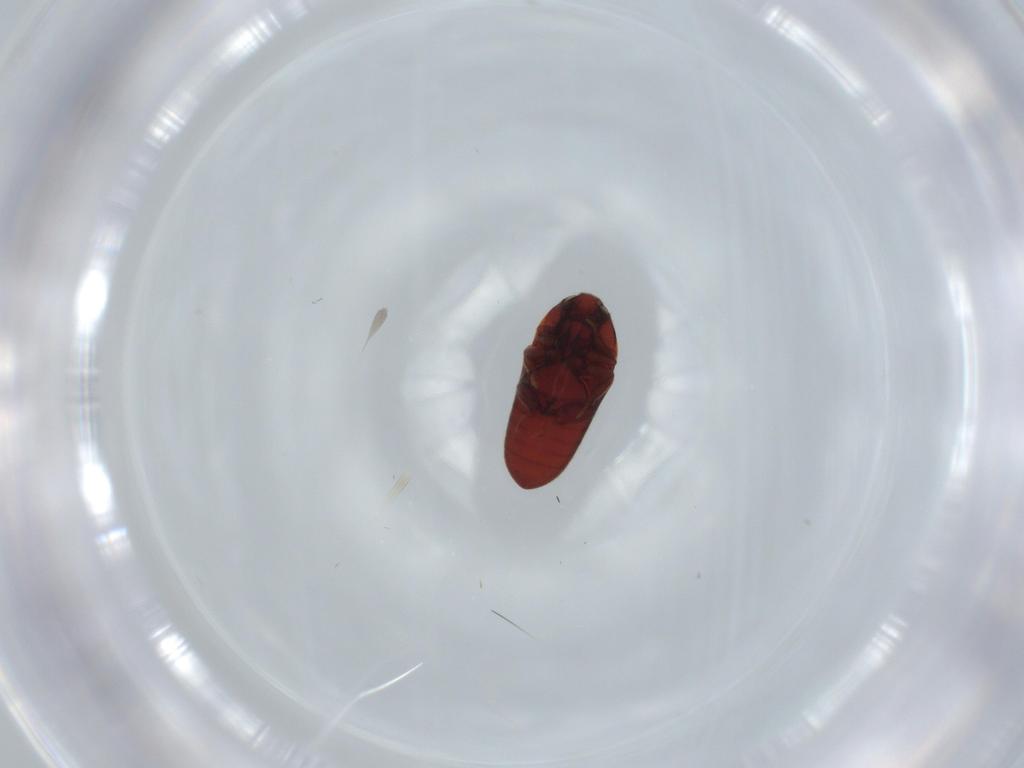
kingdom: Animalia
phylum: Arthropoda
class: Insecta
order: Coleoptera
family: Throscidae
